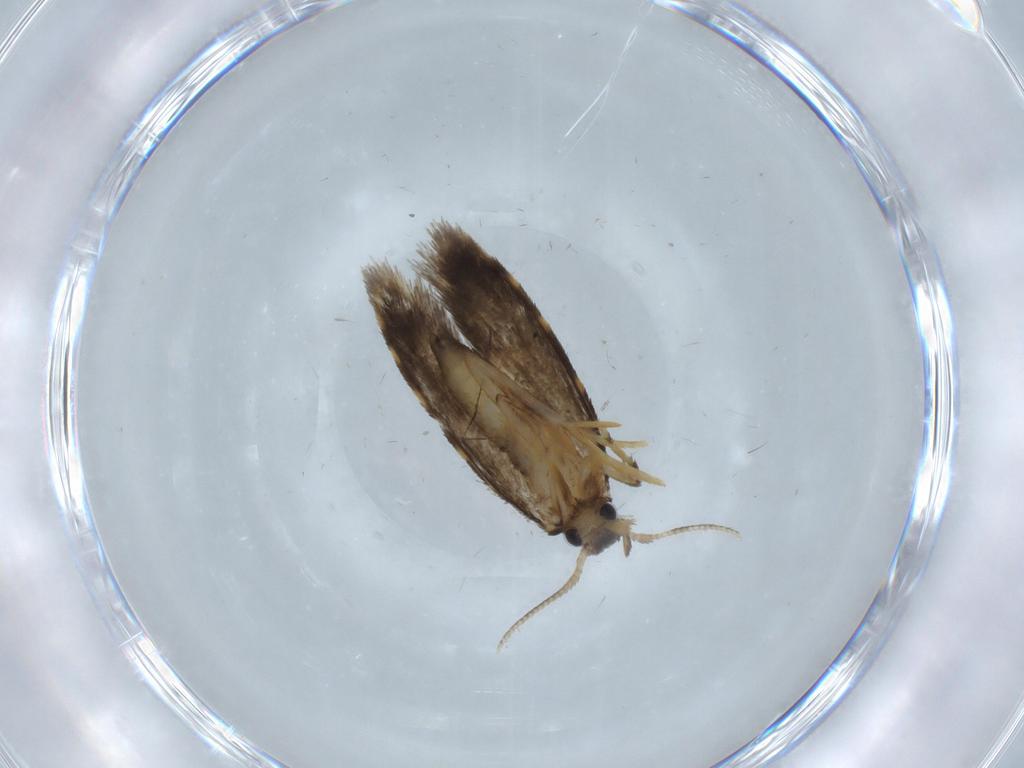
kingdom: Animalia
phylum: Arthropoda
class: Insecta
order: Lepidoptera
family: Psychidae
